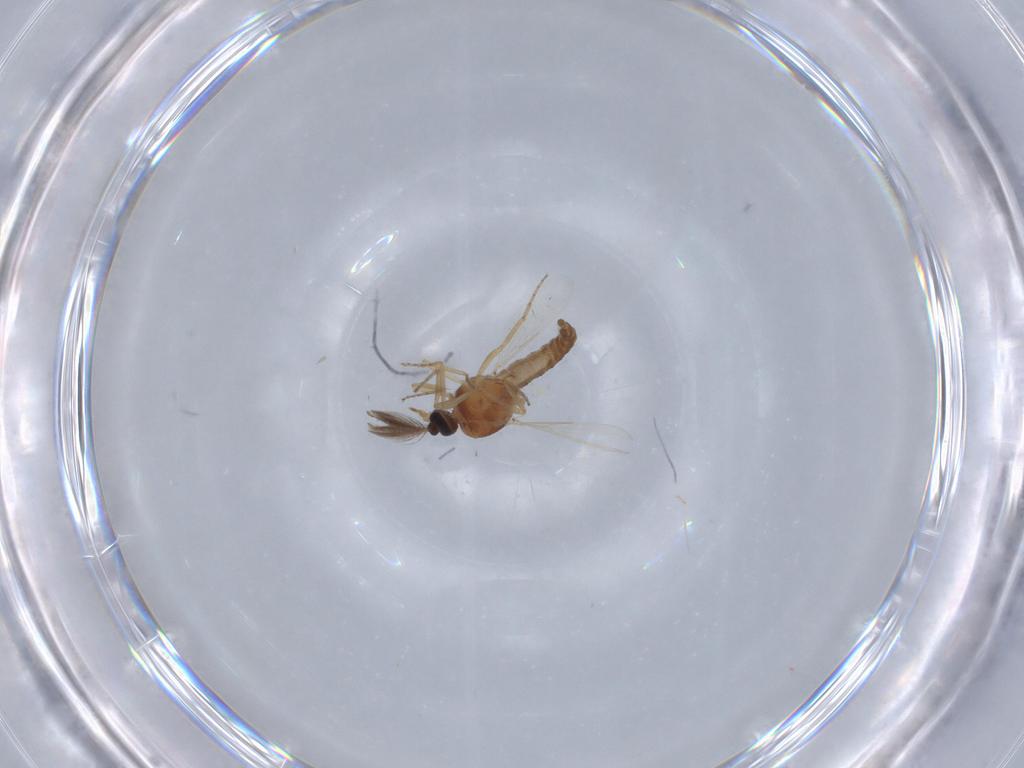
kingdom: Animalia
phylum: Arthropoda
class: Insecta
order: Diptera
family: Ceratopogonidae
